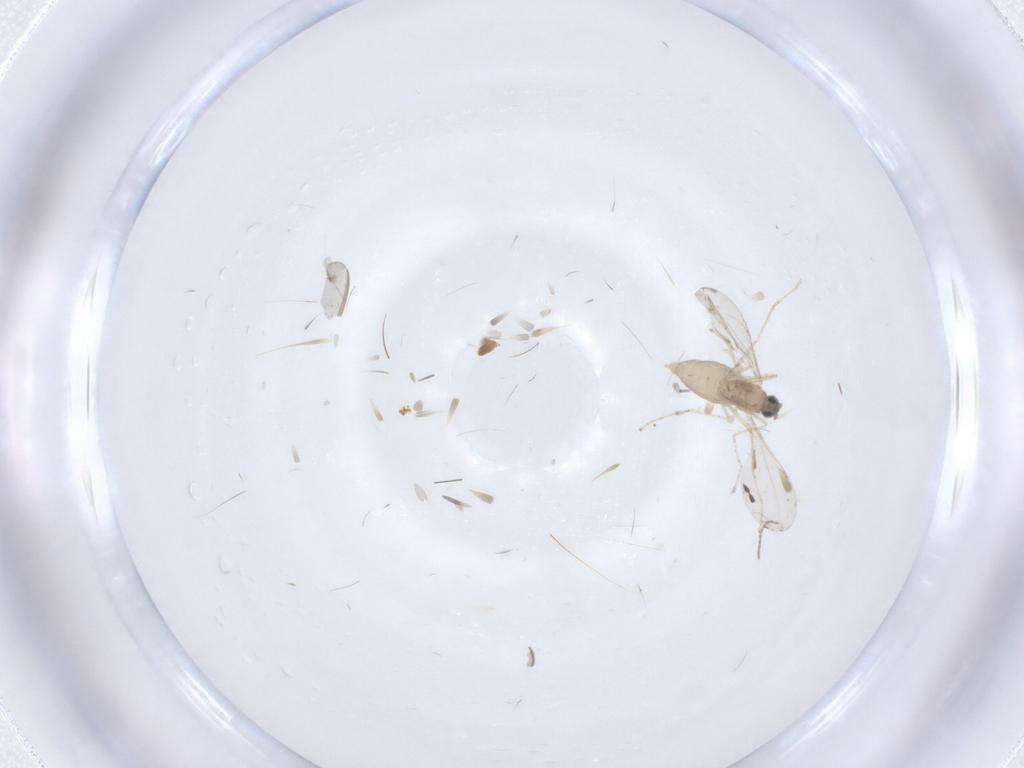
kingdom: Animalia
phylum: Arthropoda
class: Insecta
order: Diptera
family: Cecidomyiidae
